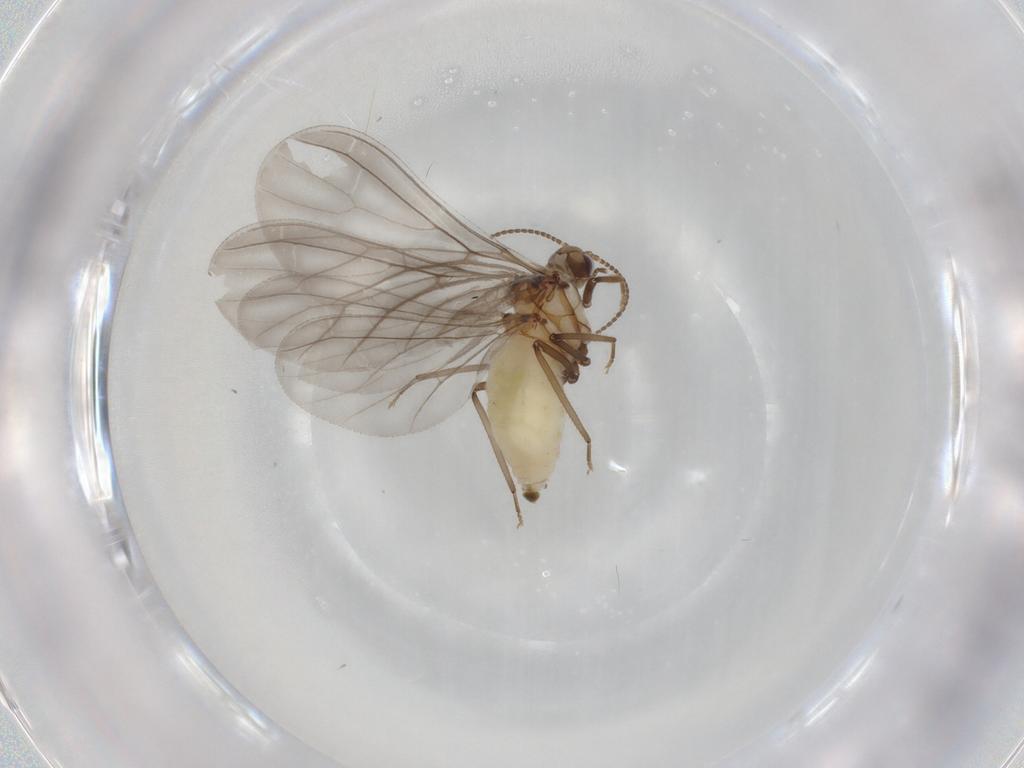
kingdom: Animalia
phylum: Arthropoda
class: Insecta
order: Neuroptera
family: Coniopterygidae
